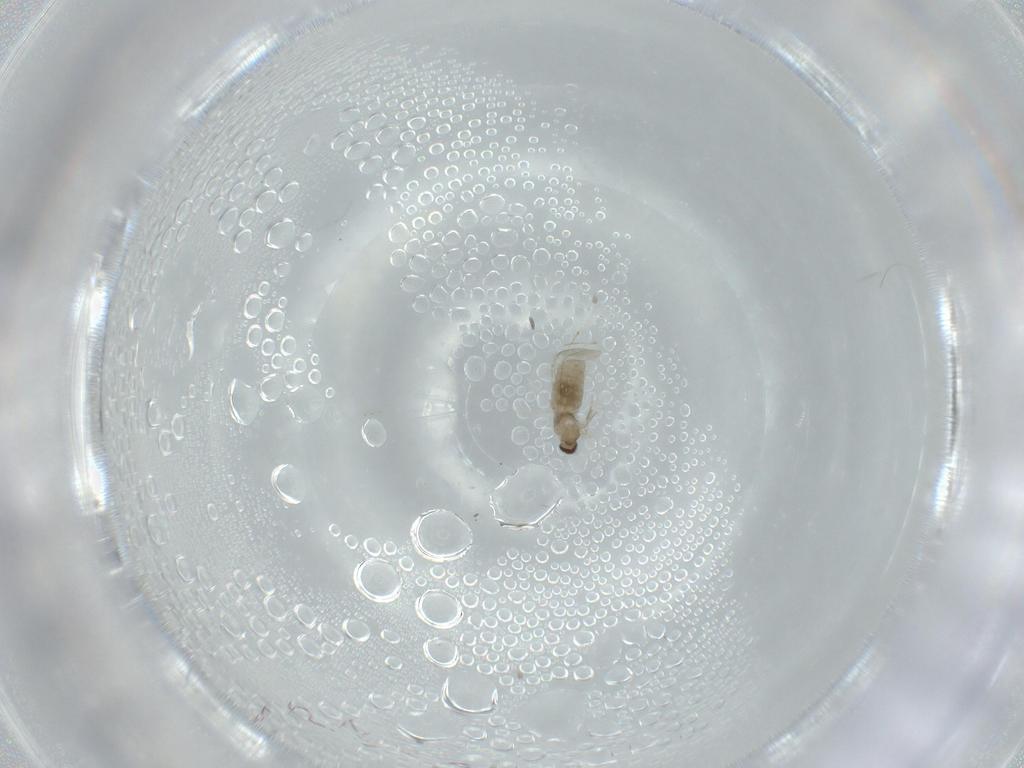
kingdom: Animalia
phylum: Arthropoda
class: Insecta
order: Diptera
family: Cecidomyiidae
